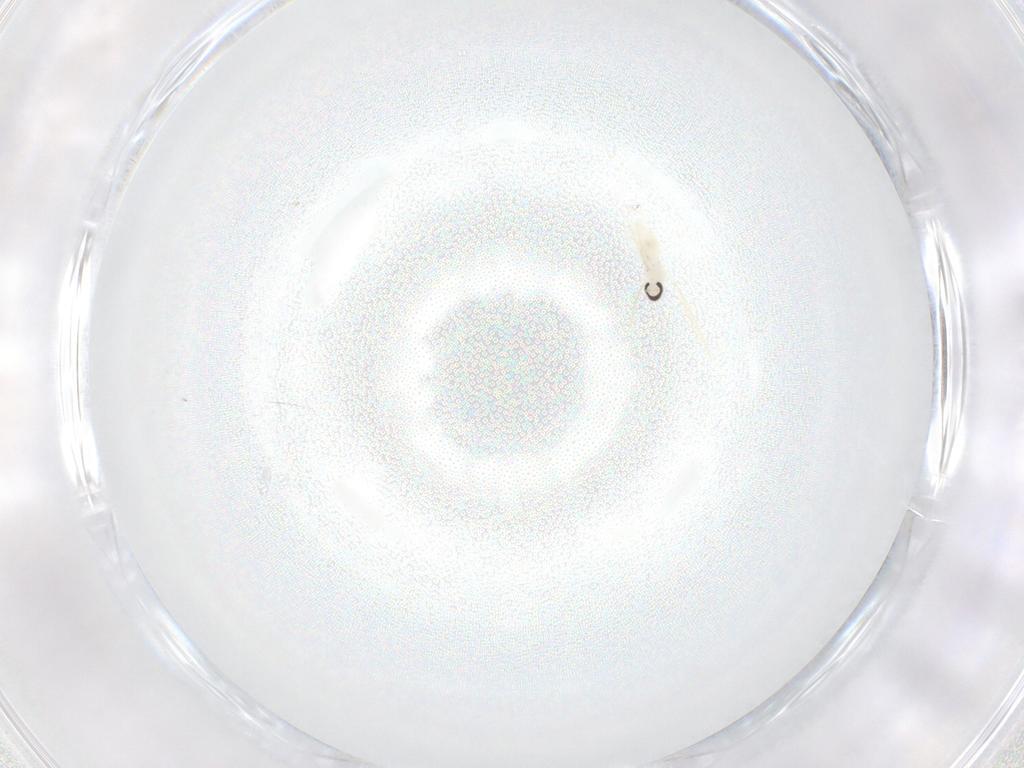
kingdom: Animalia
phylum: Arthropoda
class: Insecta
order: Diptera
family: Cecidomyiidae
